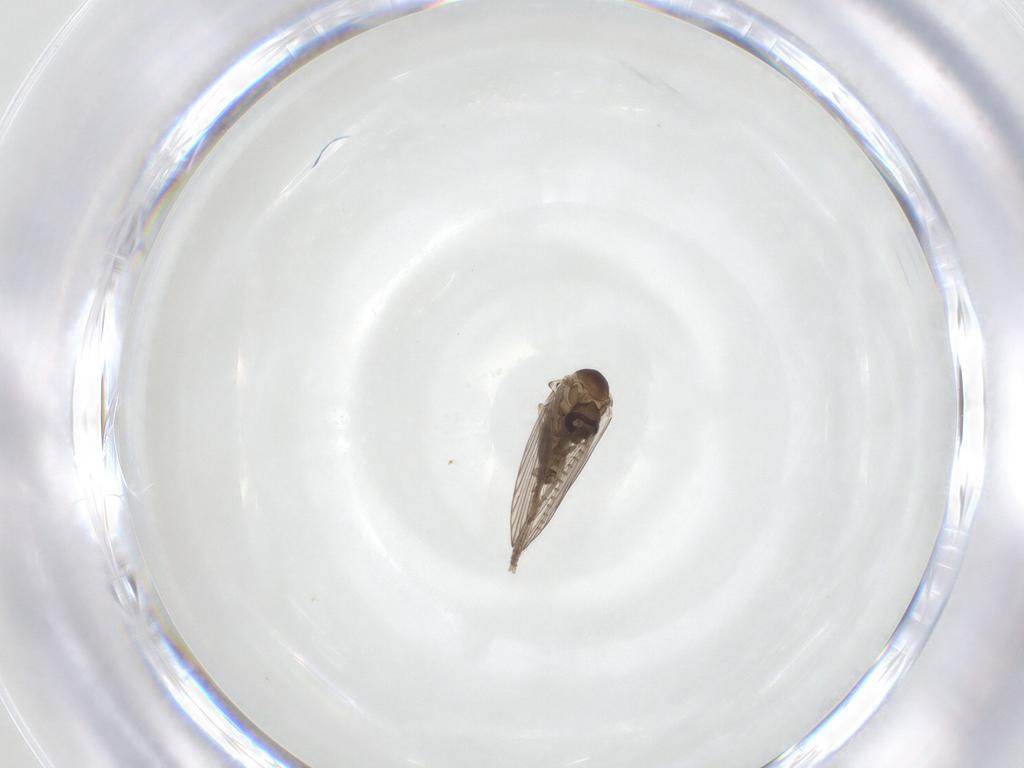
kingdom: Animalia
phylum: Arthropoda
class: Insecta
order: Diptera
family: Psychodidae
